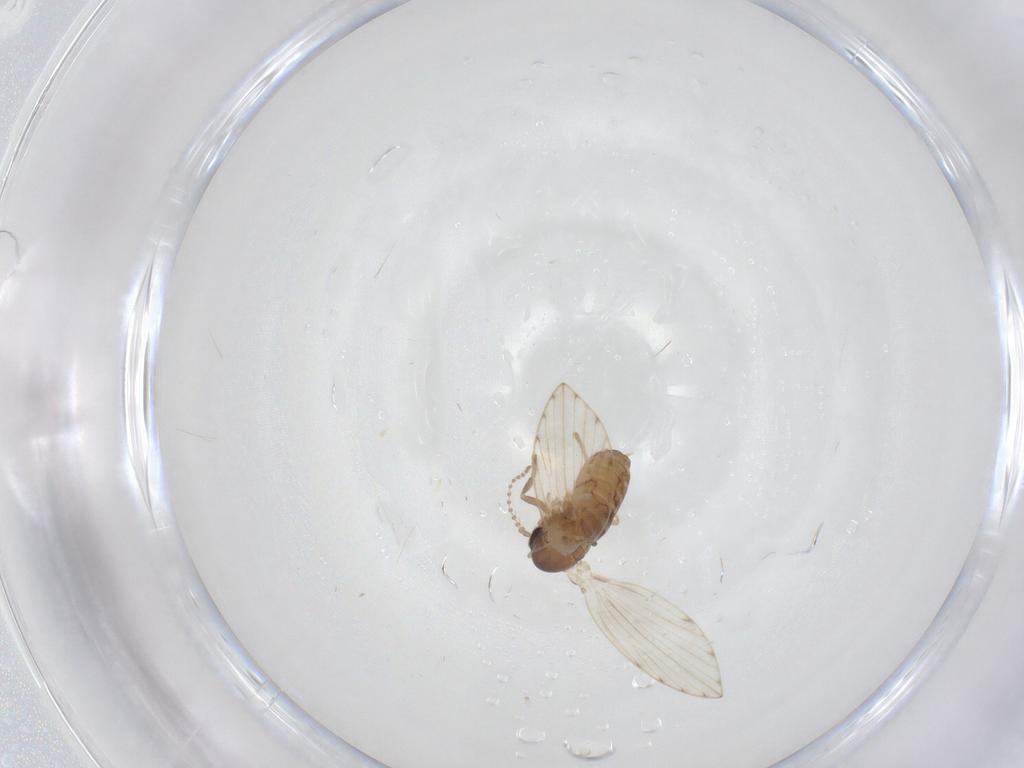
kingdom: Animalia
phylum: Arthropoda
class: Insecta
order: Diptera
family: Psychodidae
